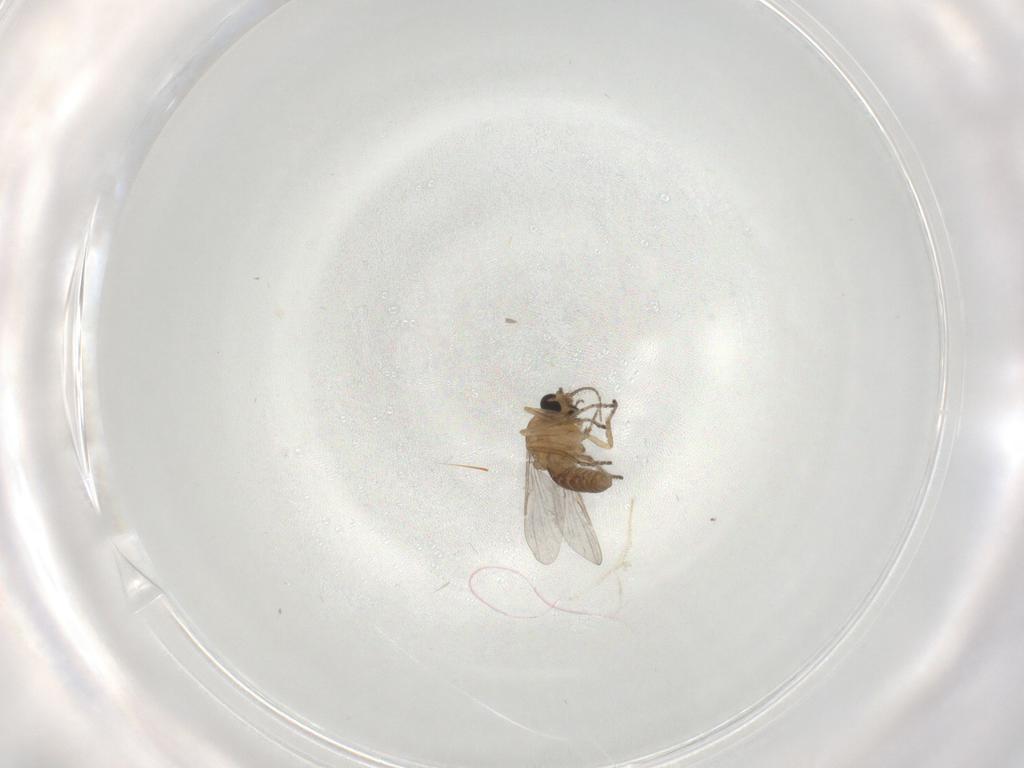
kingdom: Animalia
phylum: Arthropoda
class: Insecta
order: Diptera
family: Ceratopogonidae
